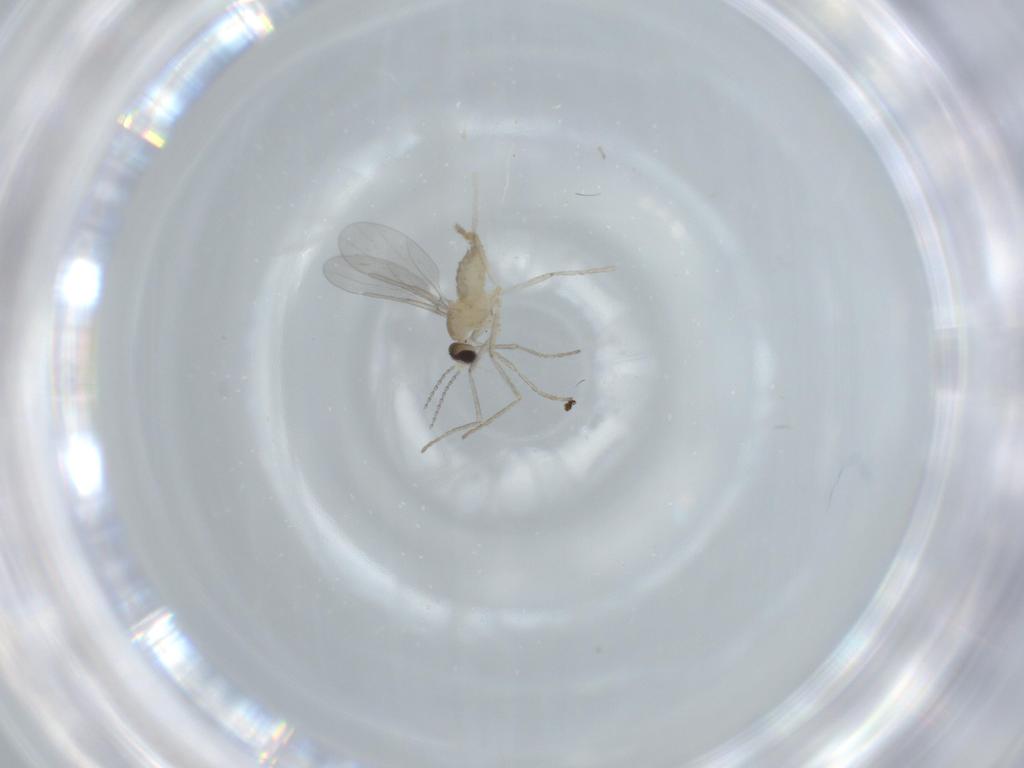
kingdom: Animalia
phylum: Arthropoda
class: Insecta
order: Diptera
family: Cecidomyiidae
